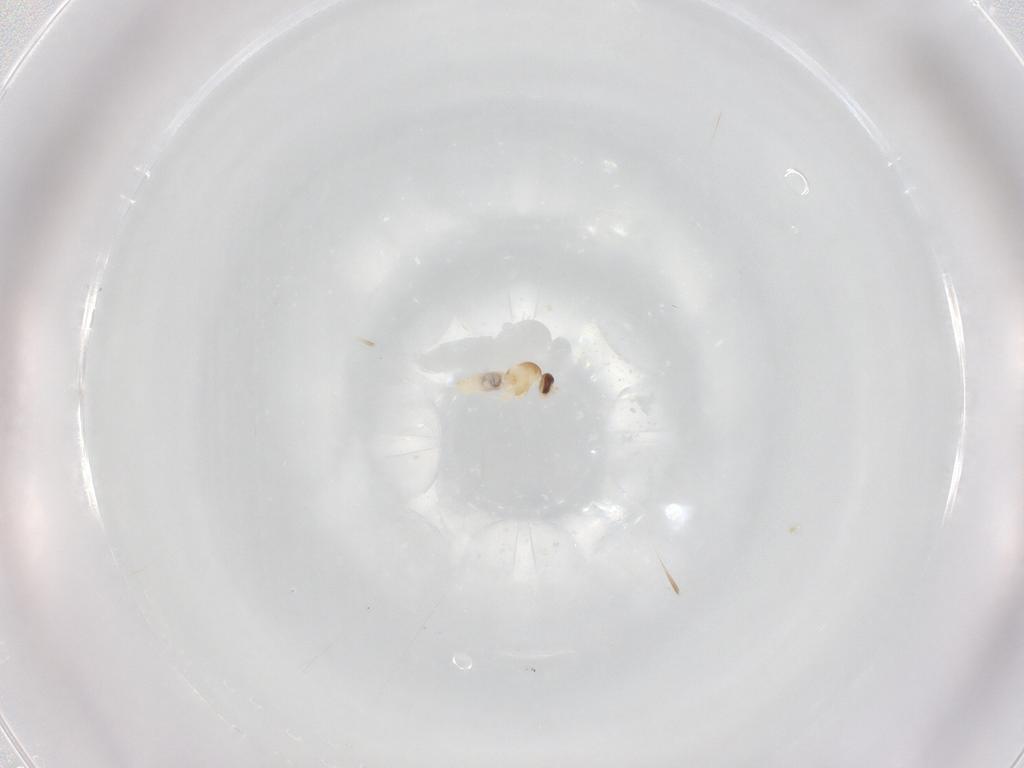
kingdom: Animalia
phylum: Arthropoda
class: Insecta
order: Diptera
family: Cecidomyiidae
